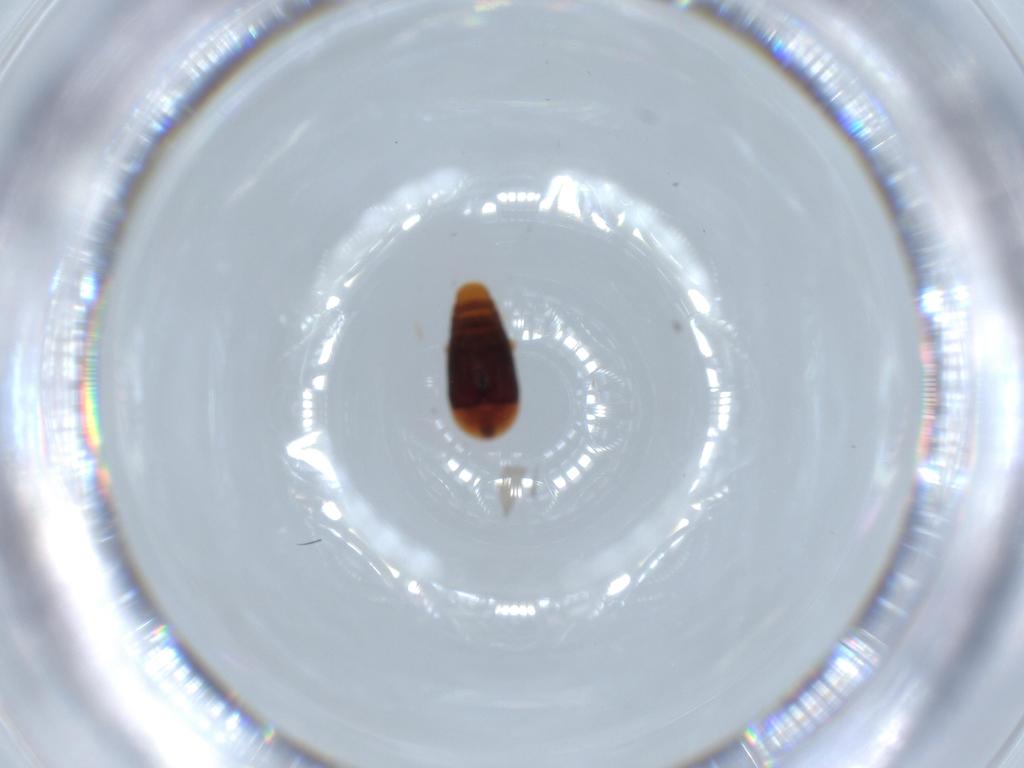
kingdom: Animalia
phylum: Arthropoda
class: Insecta
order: Coleoptera
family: Corylophidae
